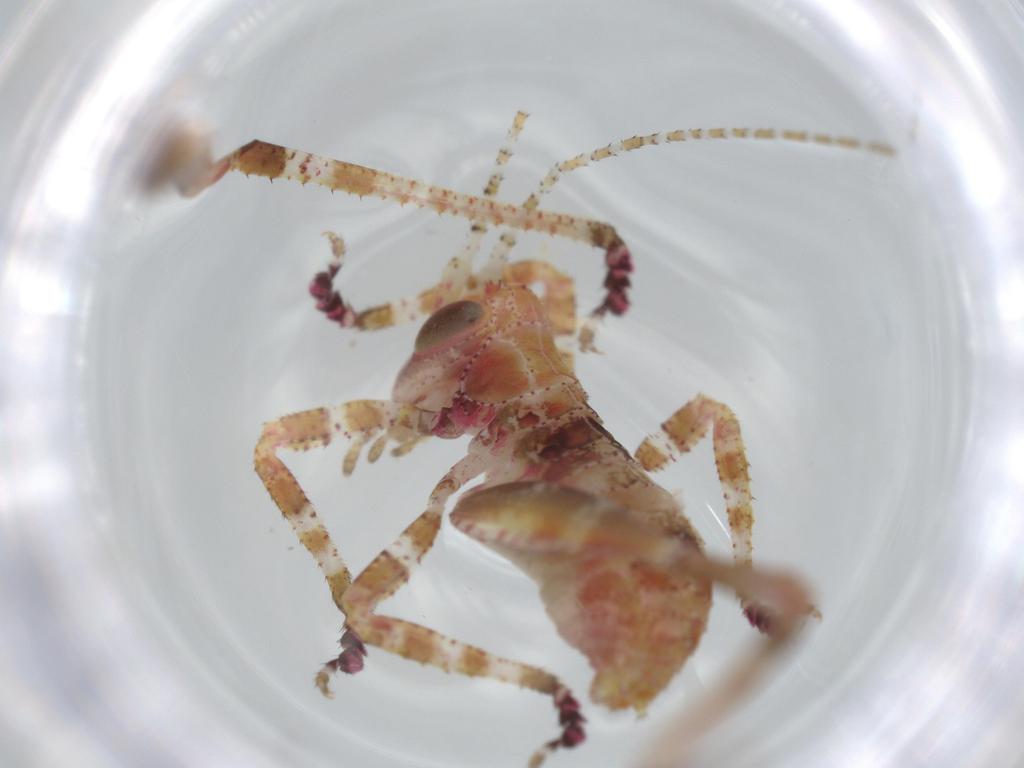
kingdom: Animalia
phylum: Arthropoda
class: Insecta
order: Orthoptera
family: Tettigoniidae
